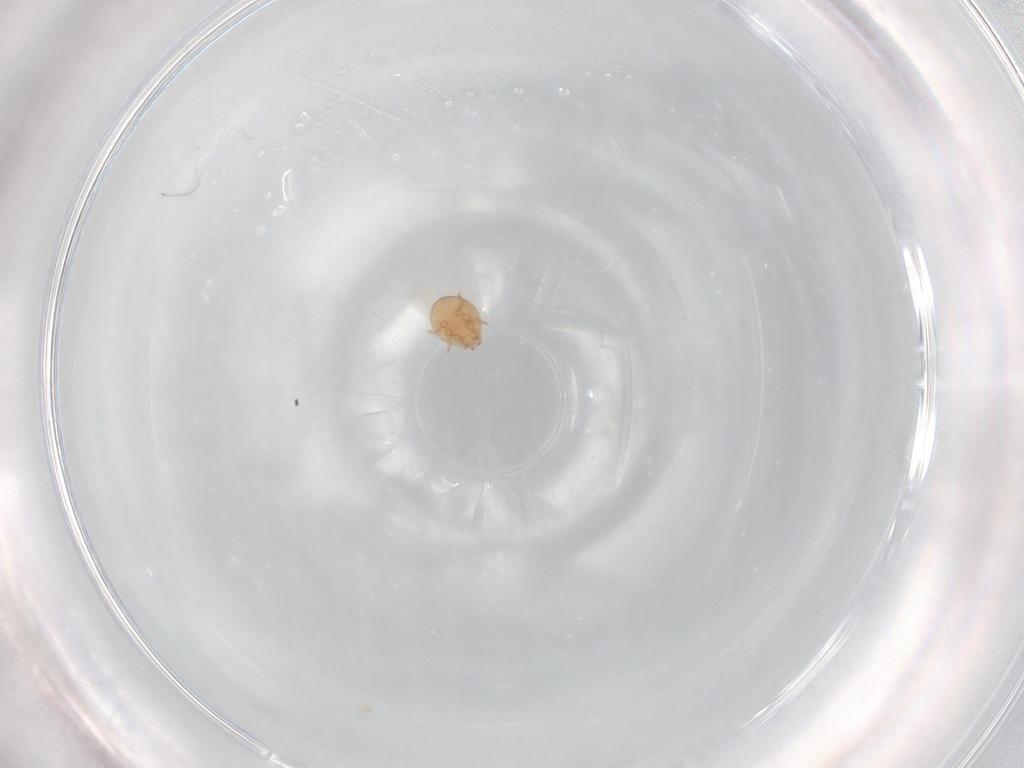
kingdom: Animalia
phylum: Arthropoda
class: Arachnida
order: Mesostigmata
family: Trematuridae
